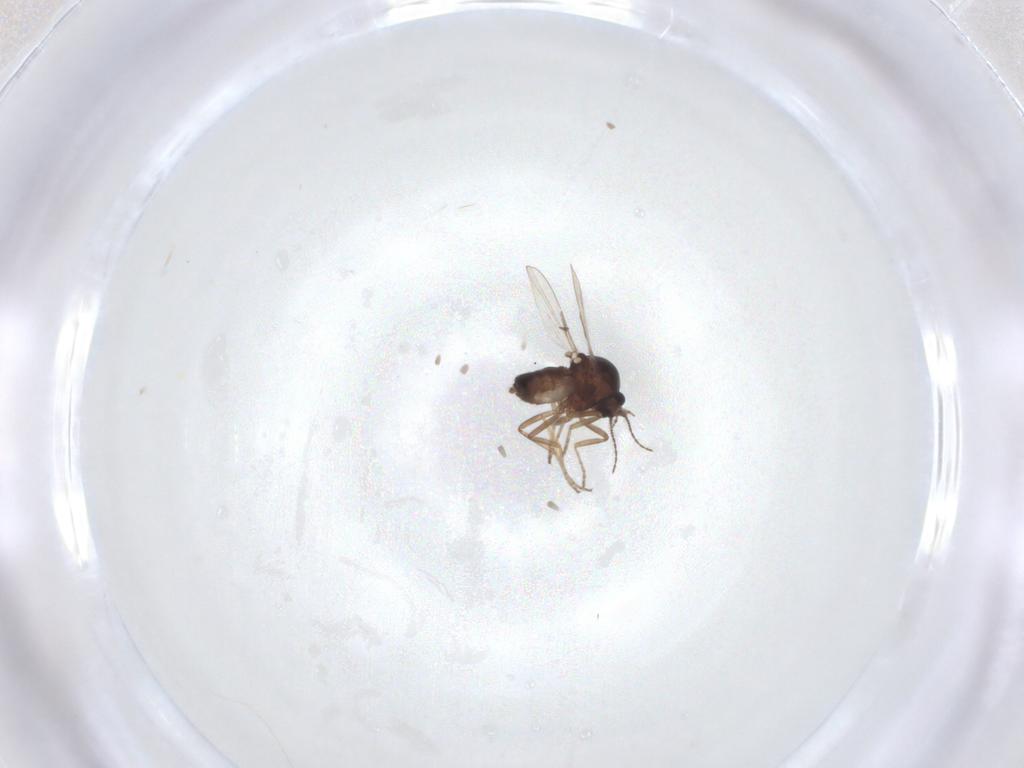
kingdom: Animalia
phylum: Arthropoda
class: Insecta
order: Diptera
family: Ceratopogonidae
